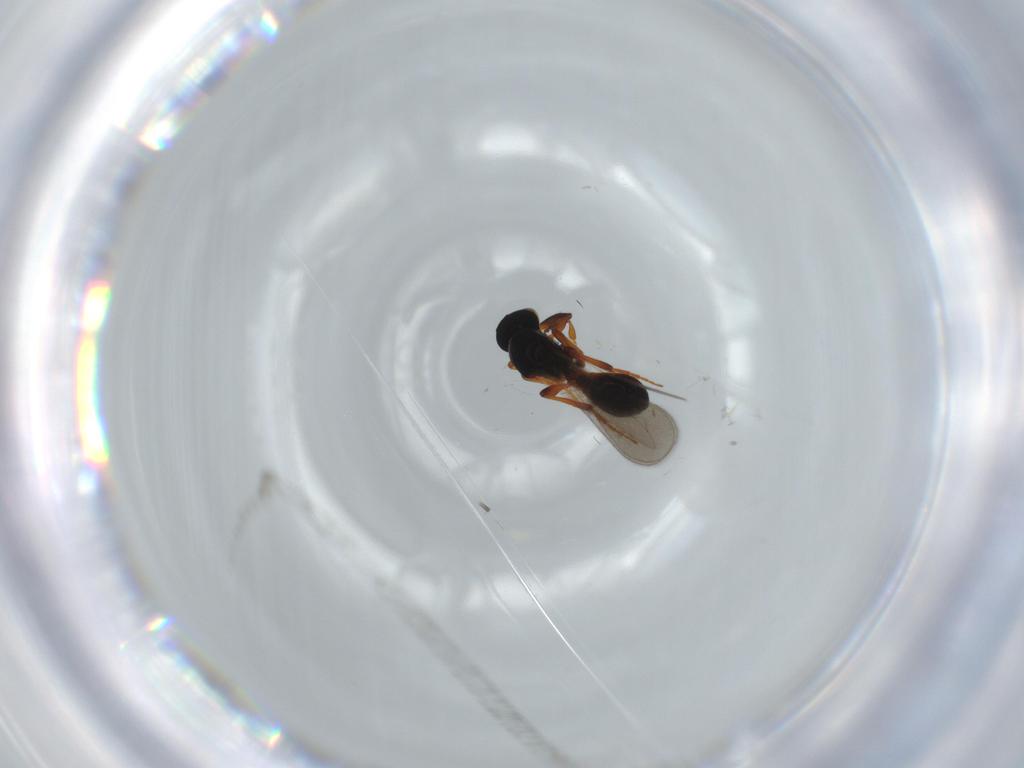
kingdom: Animalia
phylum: Arthropoda
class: Insecta
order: Hymenoptera
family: Platygastridae
